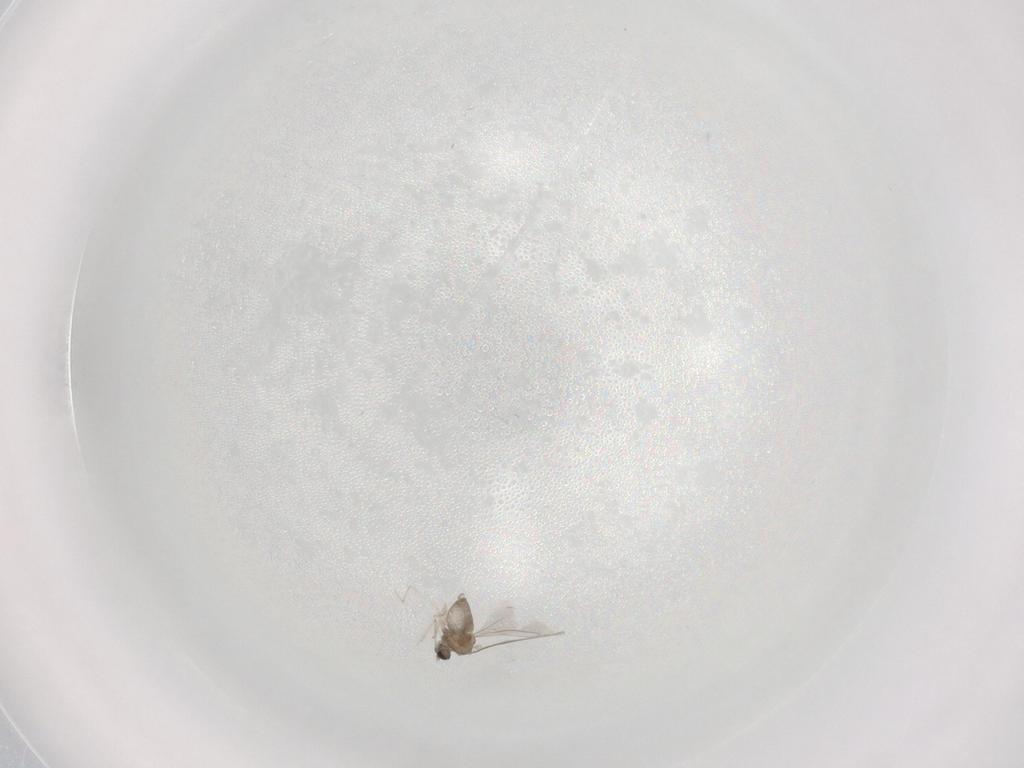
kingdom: Animalia
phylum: Arthropoda
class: Insecta
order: Diptera
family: Cecidomyiidae
